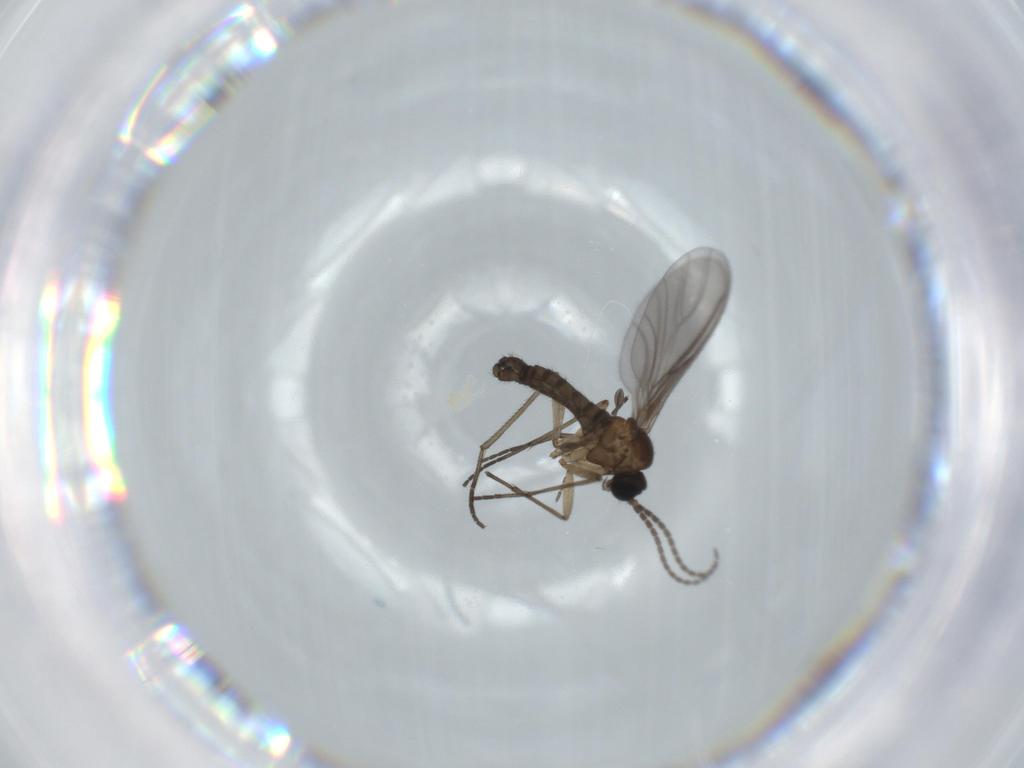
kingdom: Animalia
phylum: Arthropoda
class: Insecta
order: Diptera
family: Sciaridae
